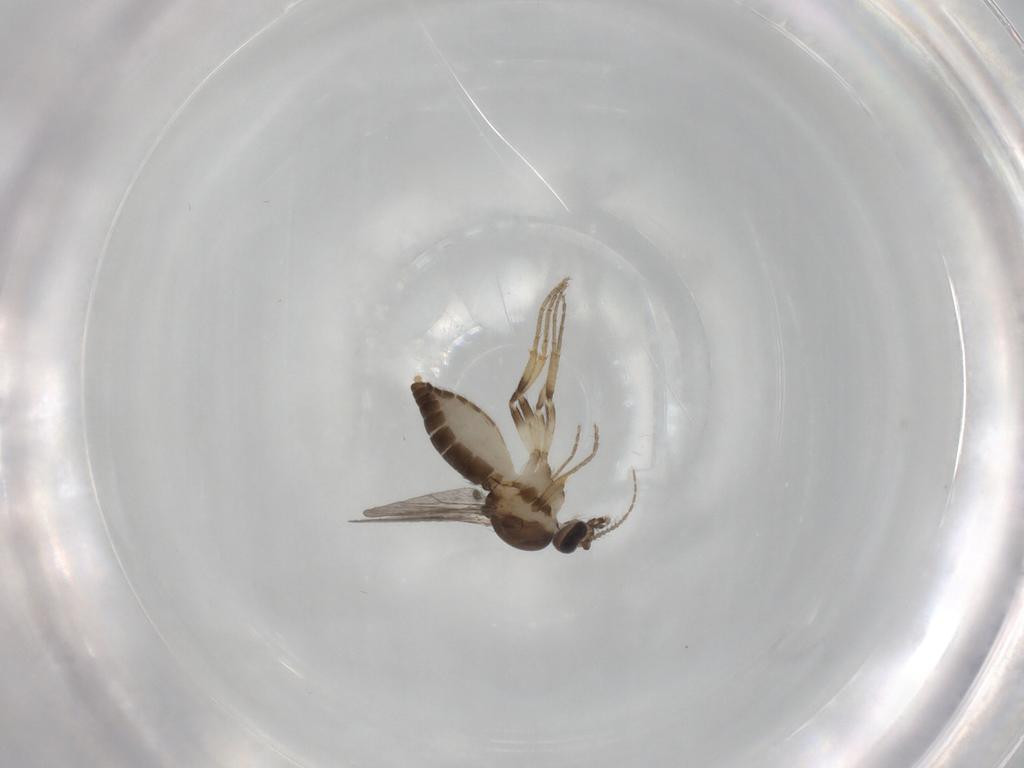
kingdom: Animalia
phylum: Arthropoda
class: Insecta
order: Diptera
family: Ceratopogonidae
